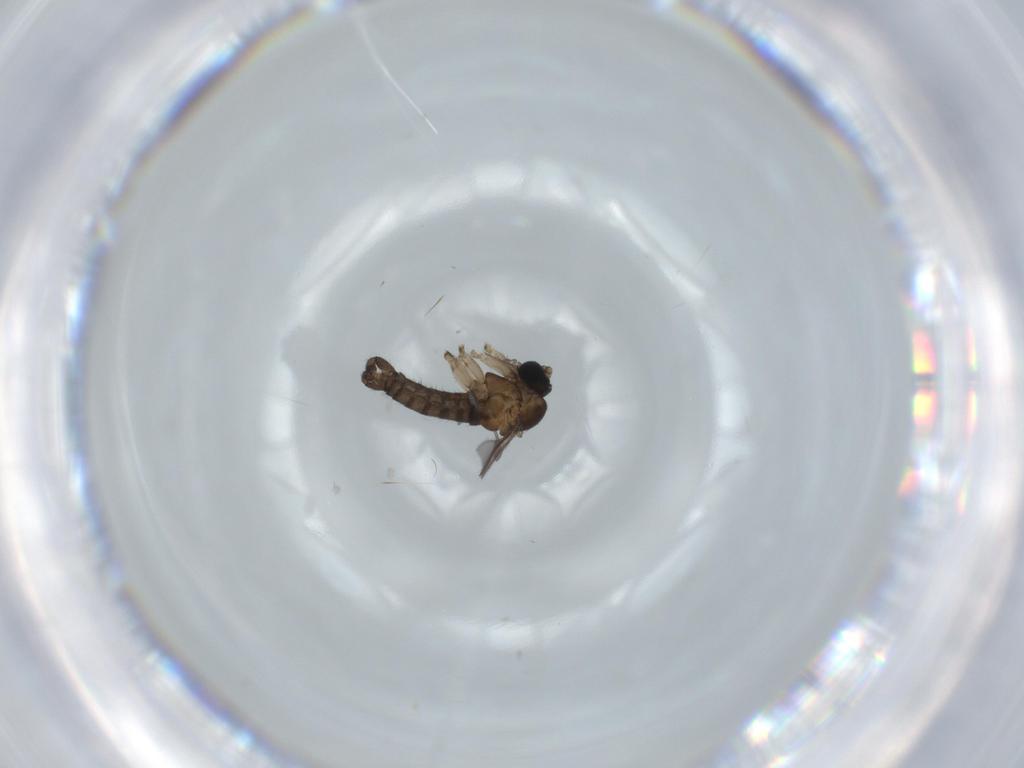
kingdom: Animalia
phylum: Arthropoda
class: Insecta
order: Diptera
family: Sciaridae
